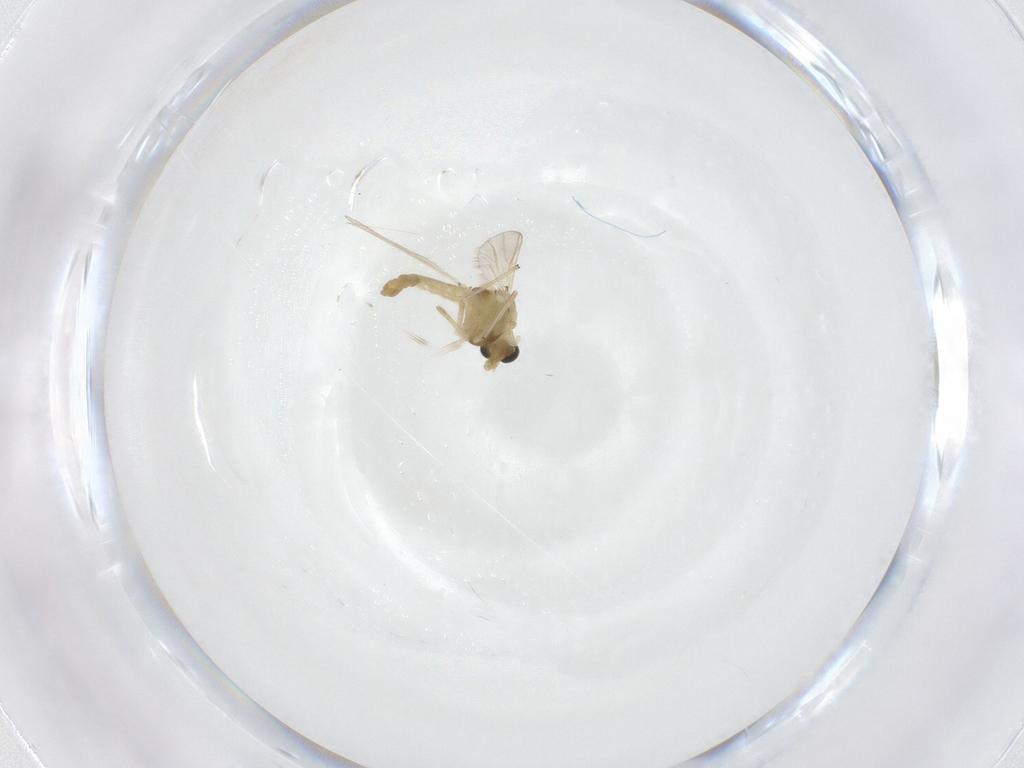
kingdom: Animalia
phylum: Arthropoda
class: Insecta
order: Diptera
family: Chironomidae
